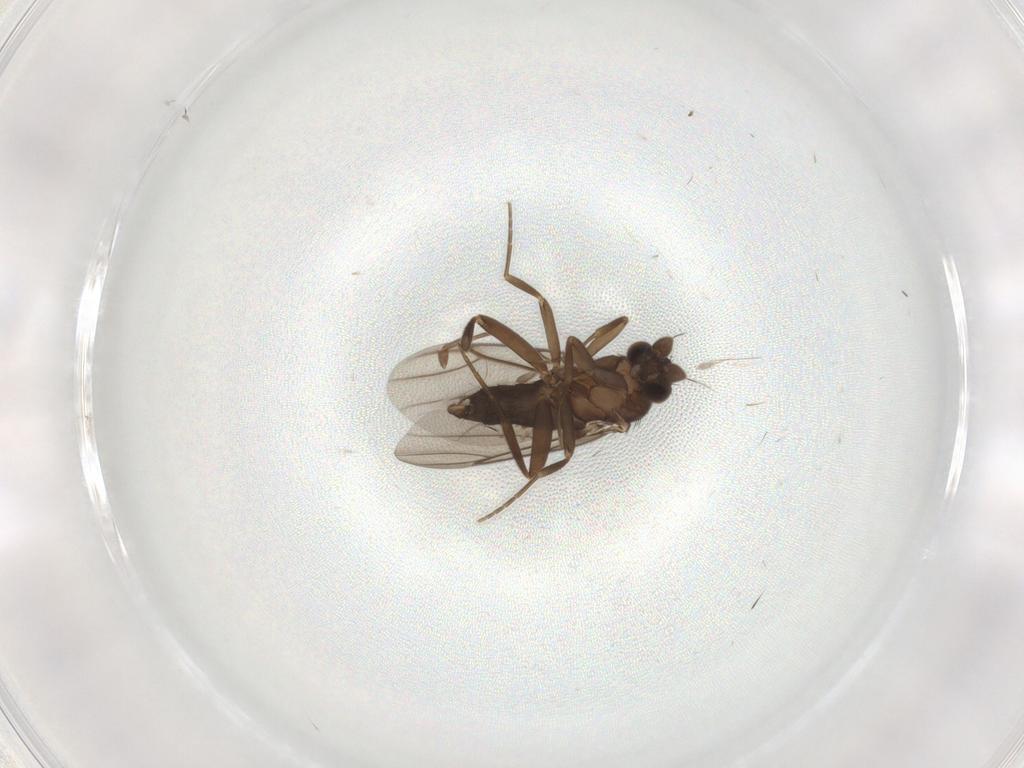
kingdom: Animalia
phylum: Arthropoda
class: Insecta
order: Diptera
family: Cecidomyiidae
